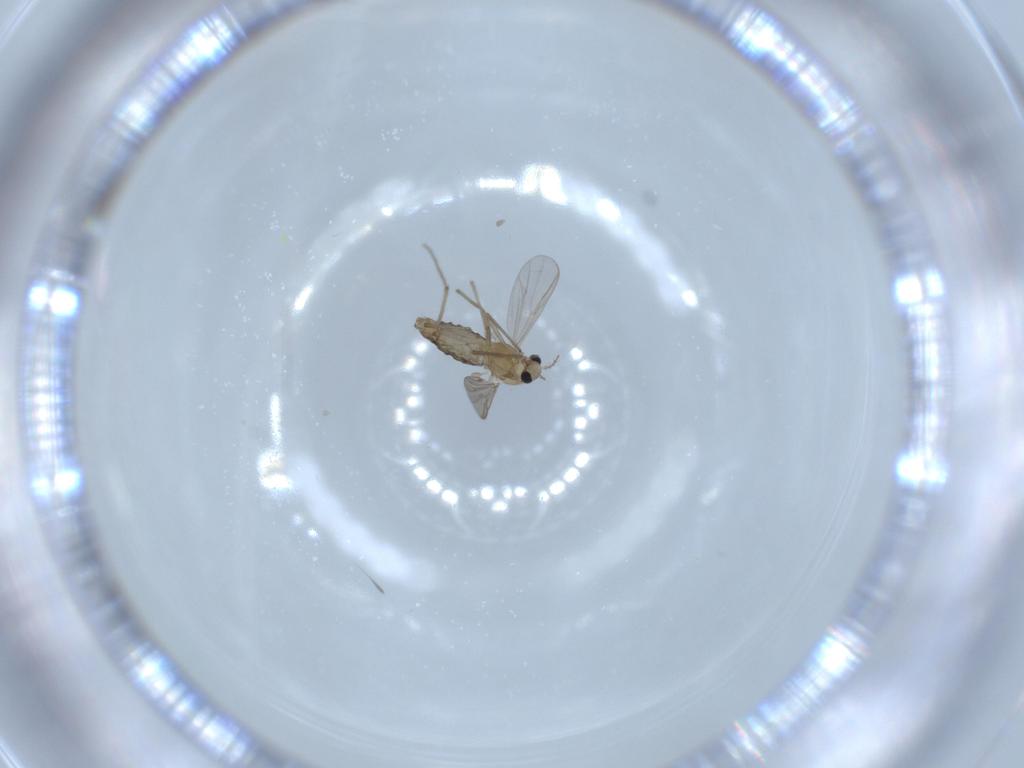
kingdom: Animalia
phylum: Arthropoda
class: Insecta
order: Diptera
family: Chironomidae
